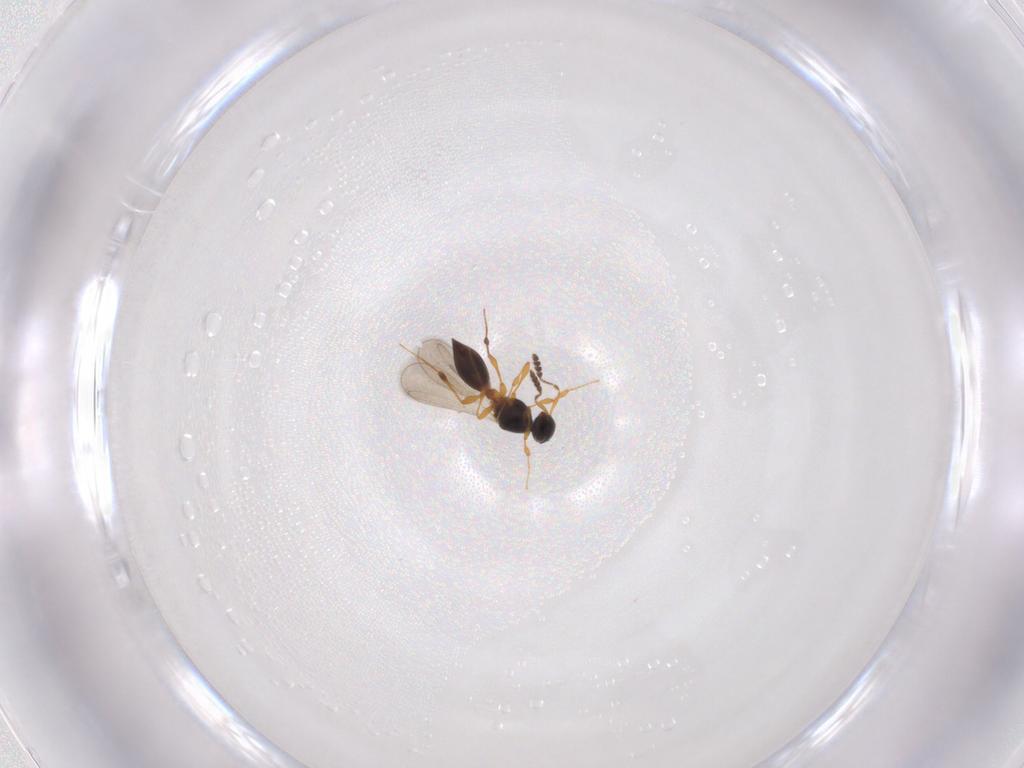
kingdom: Animalia
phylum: Arthropoda
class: Insecta
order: Hymenoptera
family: Platygastridae
